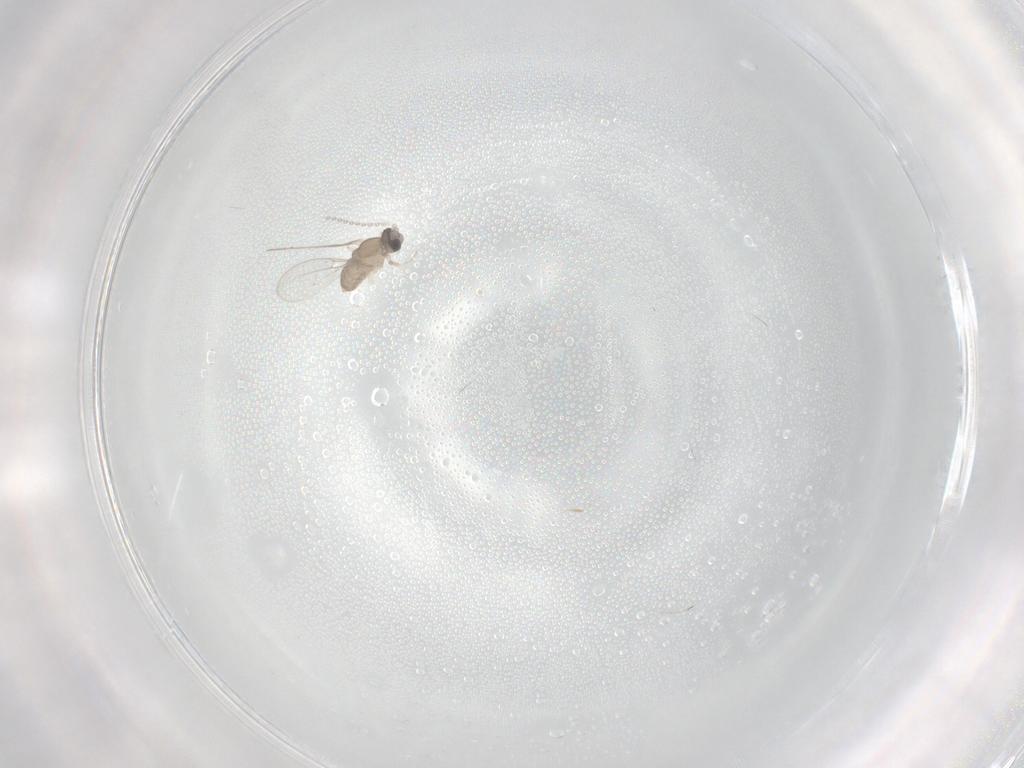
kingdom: Animalia
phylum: Arthropoda
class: Insecta
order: Diptera
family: Cecidomyiidae
